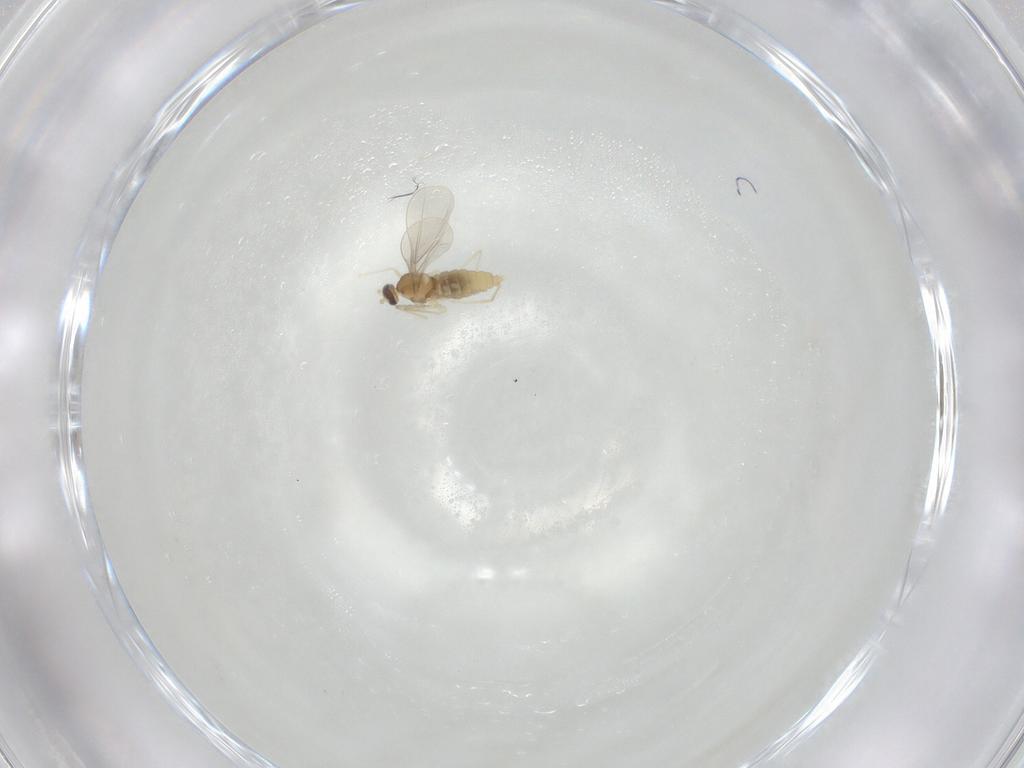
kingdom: Animalia
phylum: Arthropoda
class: Insecta
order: Diptera
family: Cecidomyiidae
